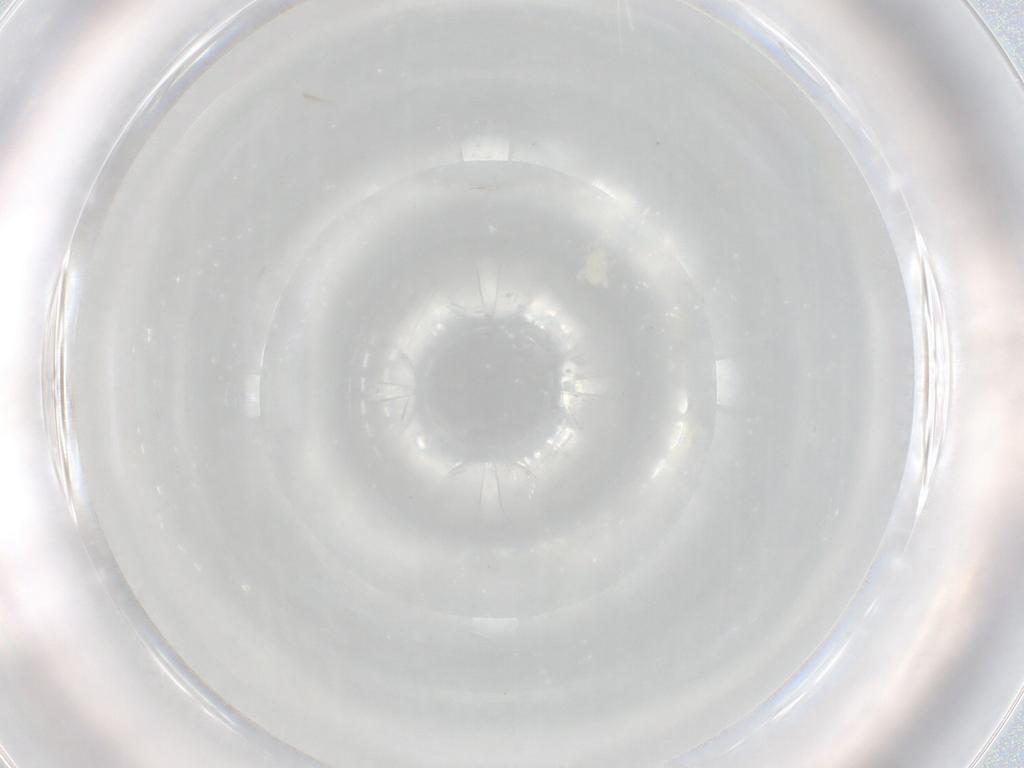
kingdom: Animalia
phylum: Arthropoda
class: Arachnida
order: Trombidiformes
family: Eupodidae
